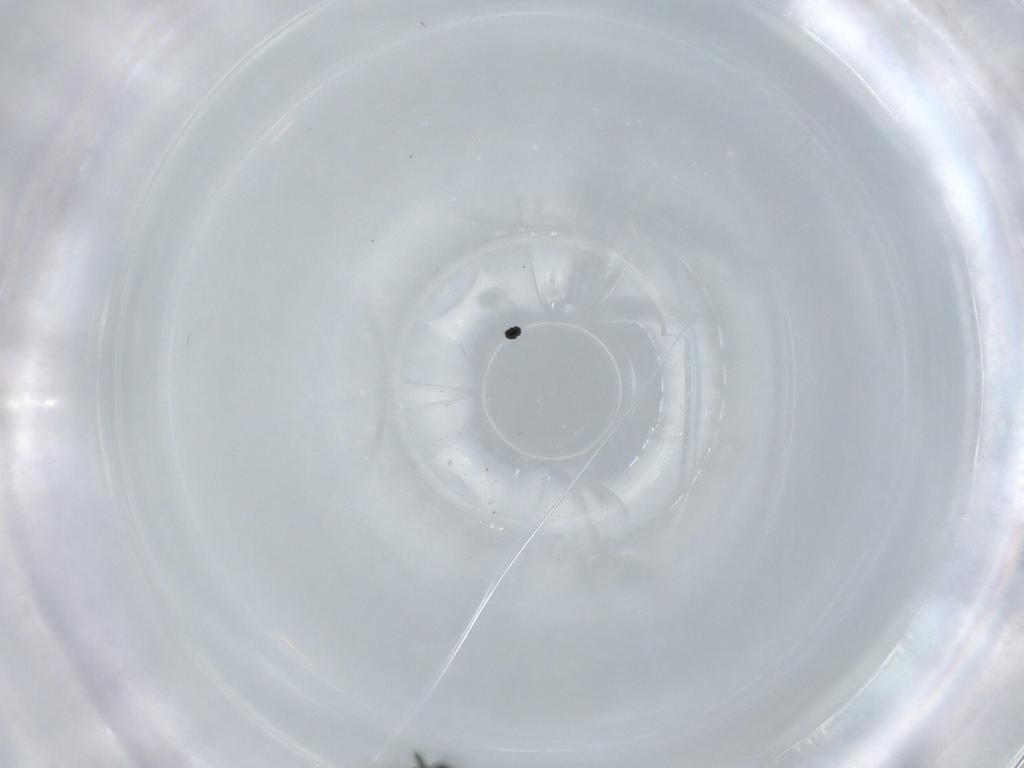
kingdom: Animalia
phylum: Arthropoda
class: Insecta
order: Hymenoptera
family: Scelionidae
